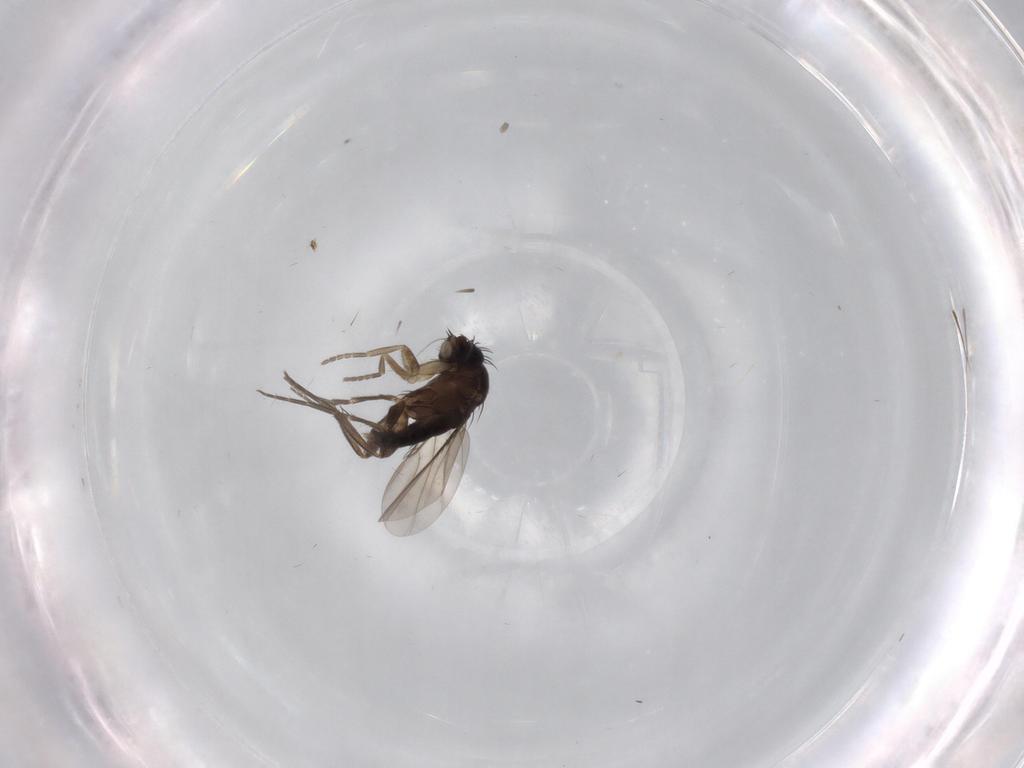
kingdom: Animalia
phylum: Arthropoda
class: Insecta
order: Diptera
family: Phoridae
